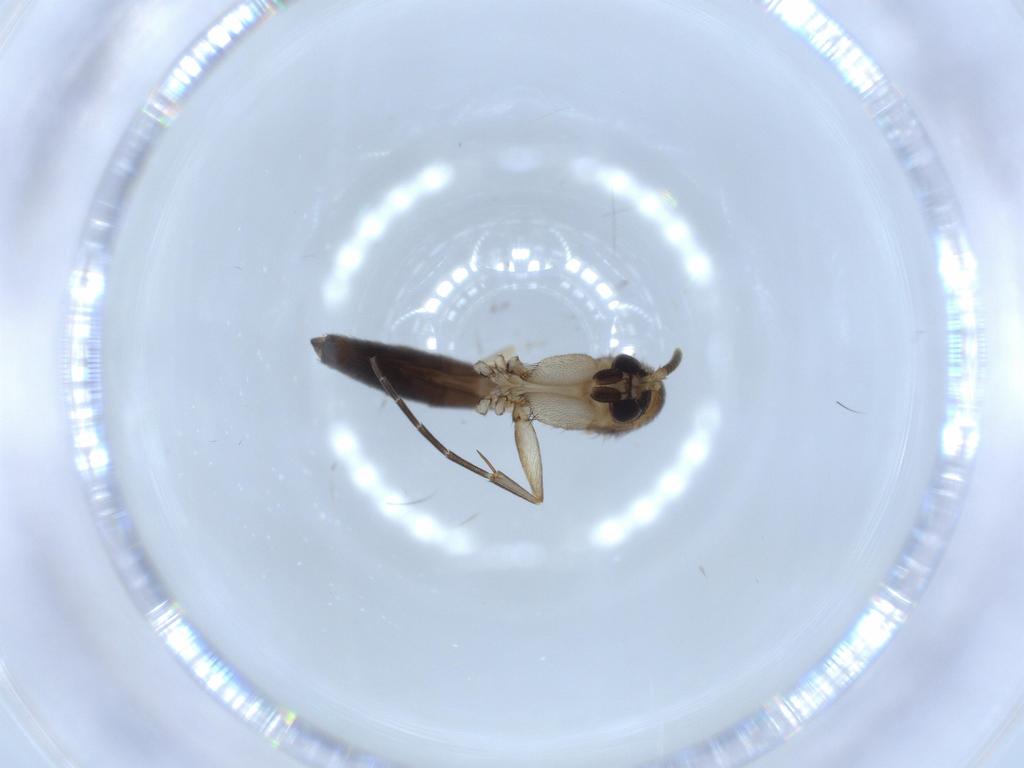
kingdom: Animalia
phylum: Arthropoda
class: Insecta
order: Diptera
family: Mycetophilidae
